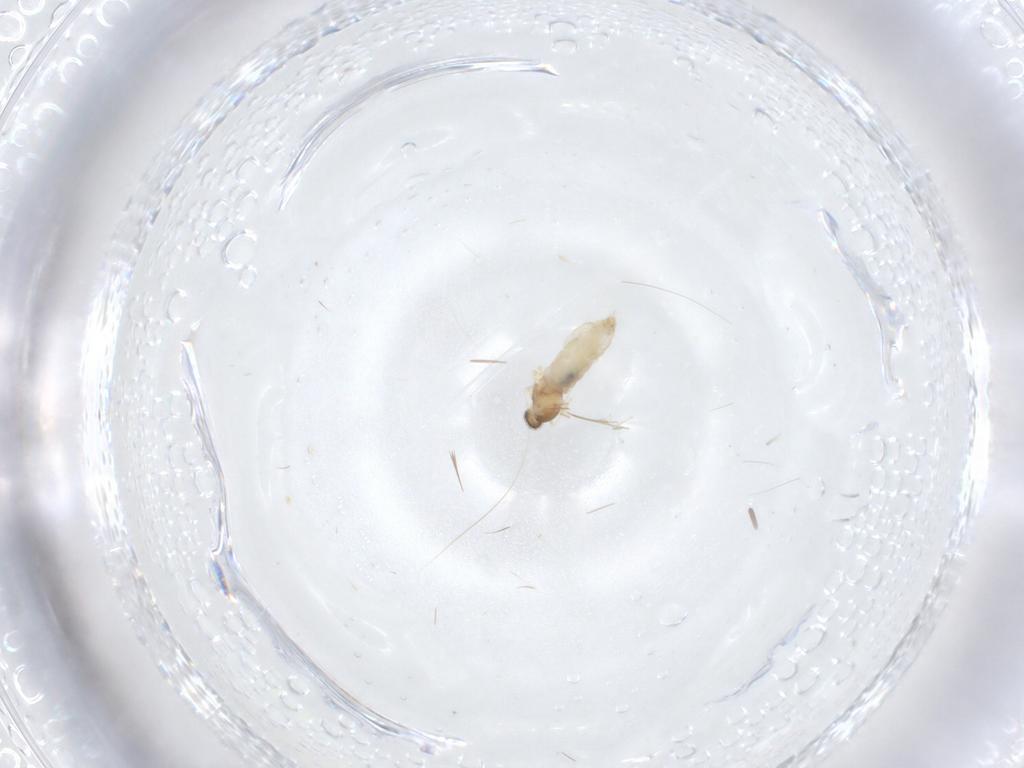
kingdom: Animalia
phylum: Arthropoda
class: Insecta
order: Diptera
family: Cecidomyiidae
